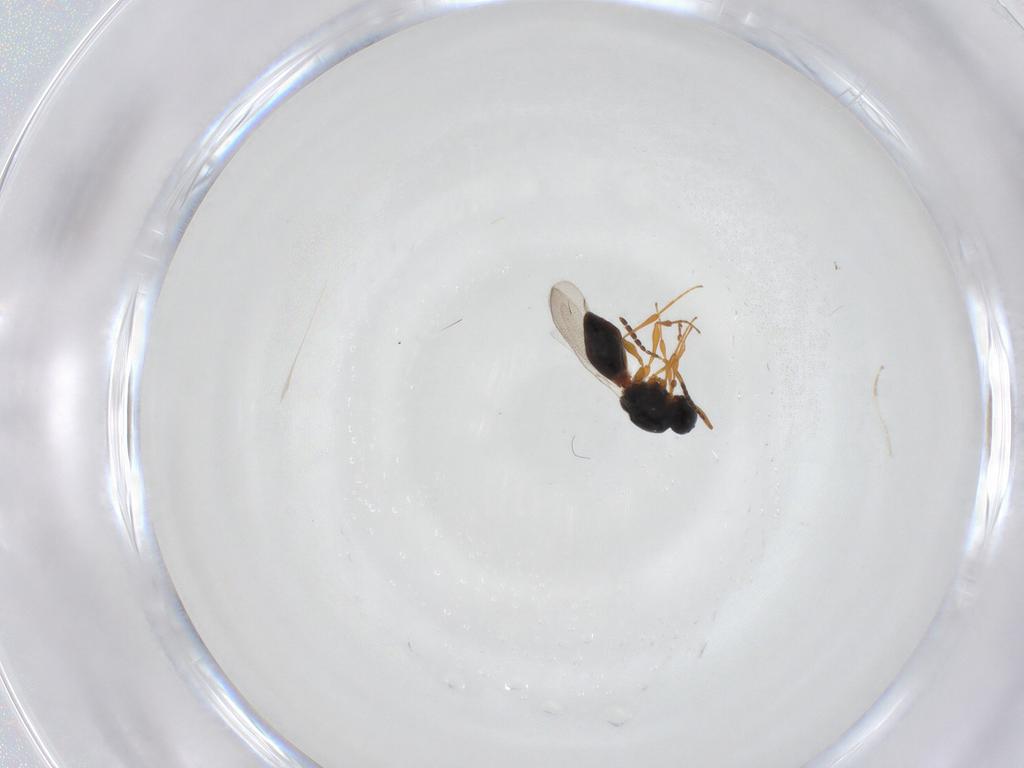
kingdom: Animalia
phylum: Arthropoda
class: Insecta
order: Hymenoptera
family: Platygastridae
